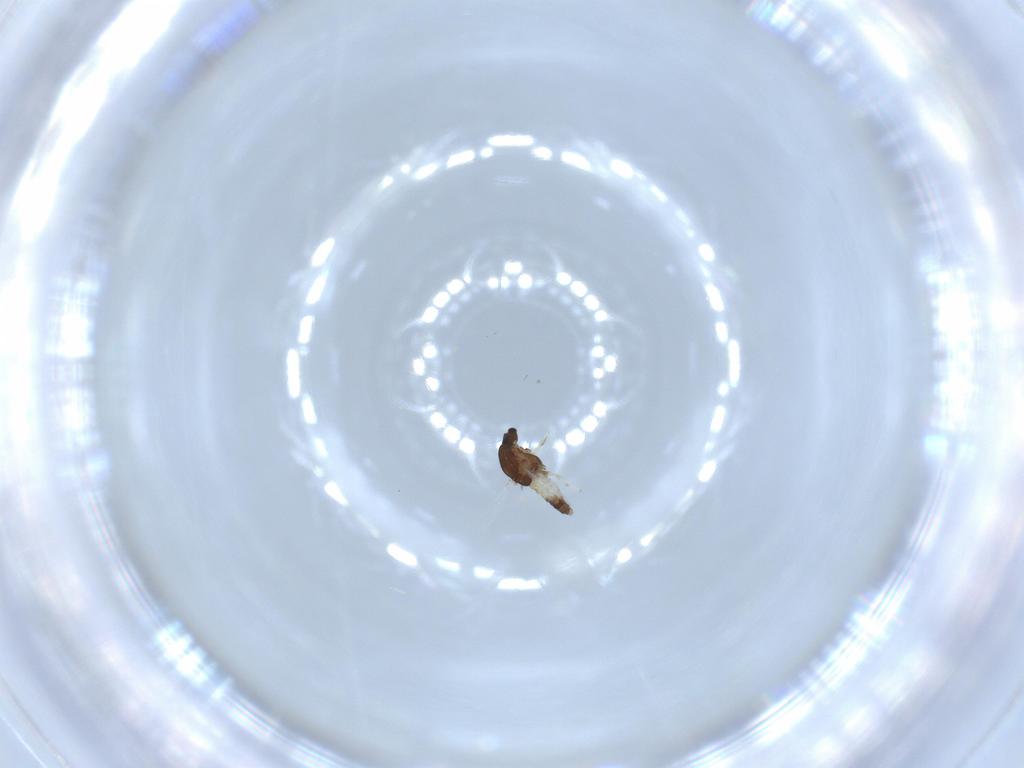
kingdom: Animalia
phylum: Arthropoda
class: Insecta
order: Diptera
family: Chironomidae
